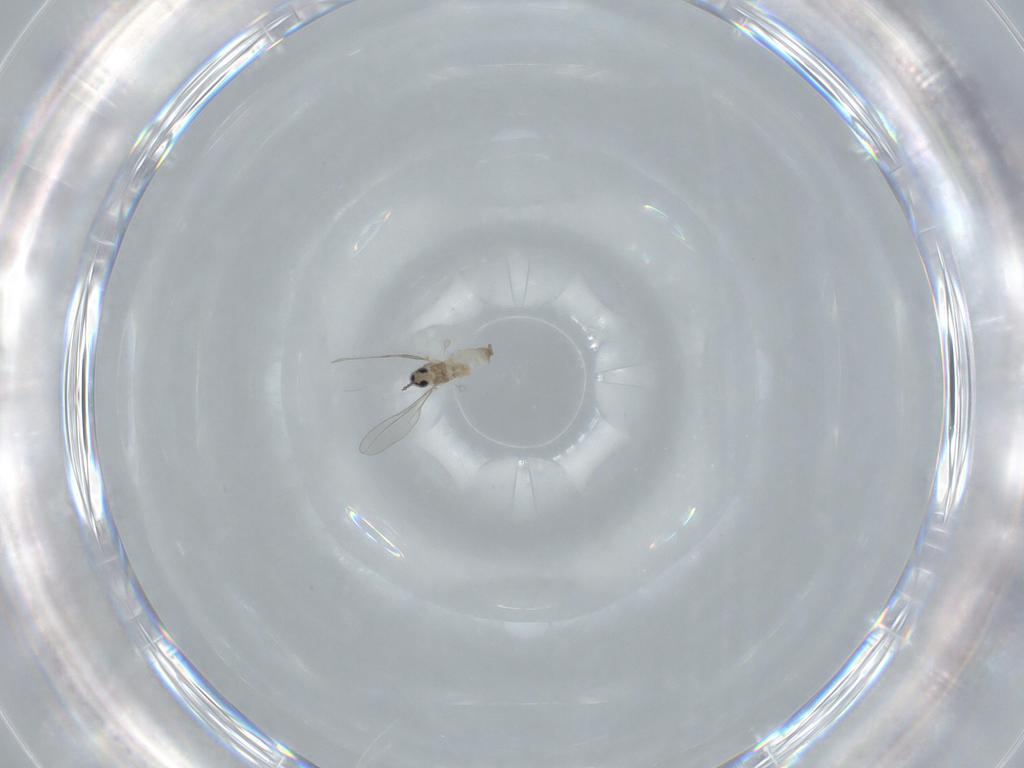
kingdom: Animalia
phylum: Arthropoda
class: Insecta
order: Diptera
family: Cecidomyiidae
